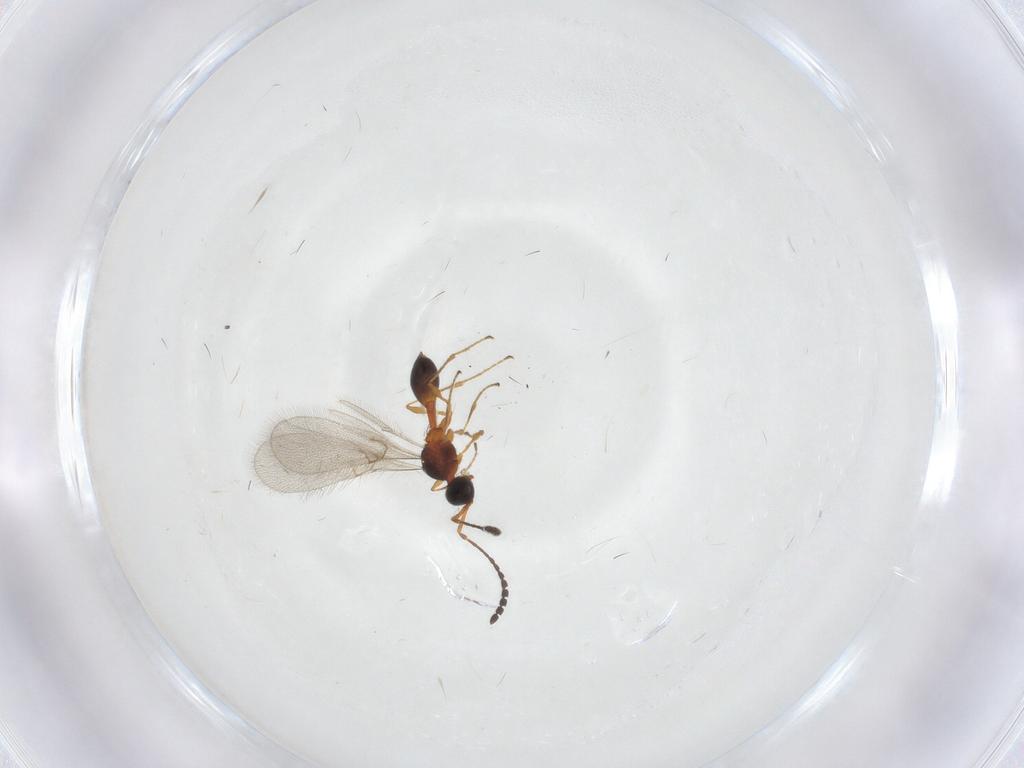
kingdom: Animalia
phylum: Arthropoda
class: Insecta
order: Hymenoptera
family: Diapriidae
